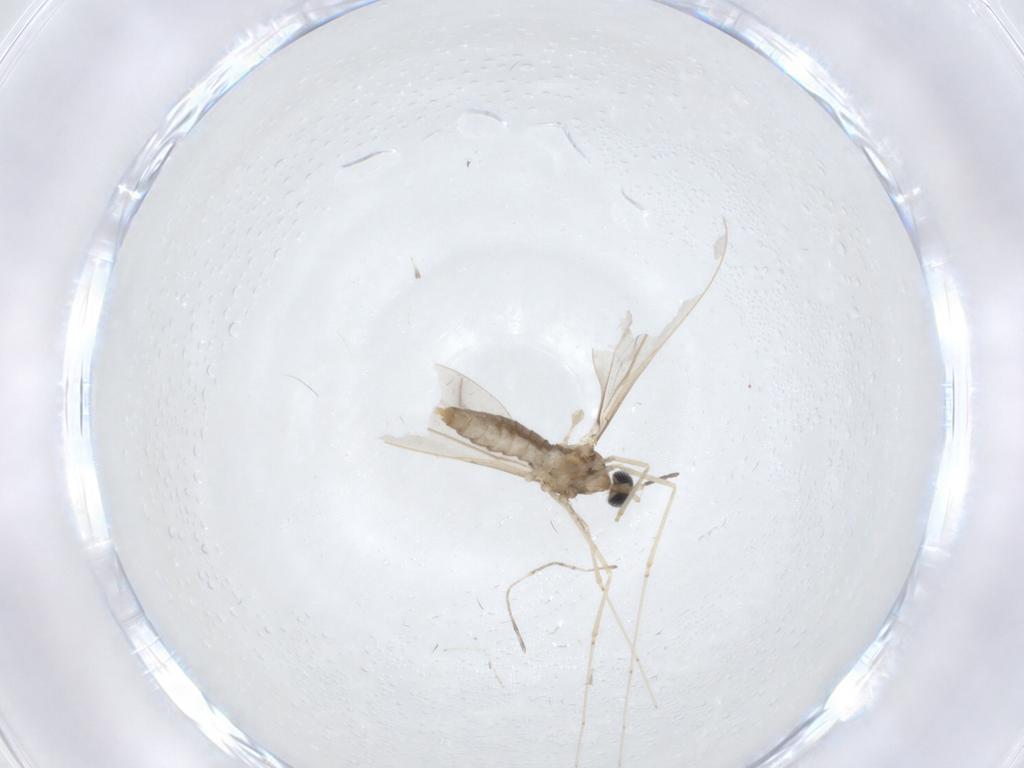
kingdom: Animalia
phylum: Arthropoda
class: Insecta
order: Diptera
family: Cecidomyiidae
